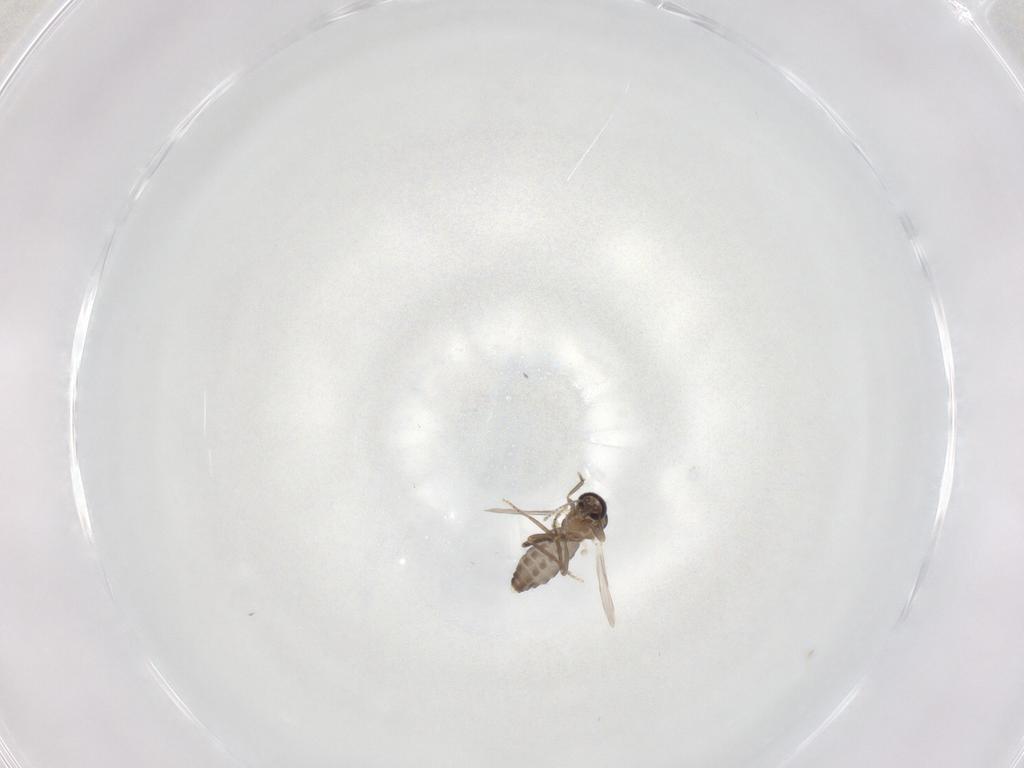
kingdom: Animalia
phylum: Arthropoda
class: Insecta
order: Diptera
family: Ceratopogonidae
